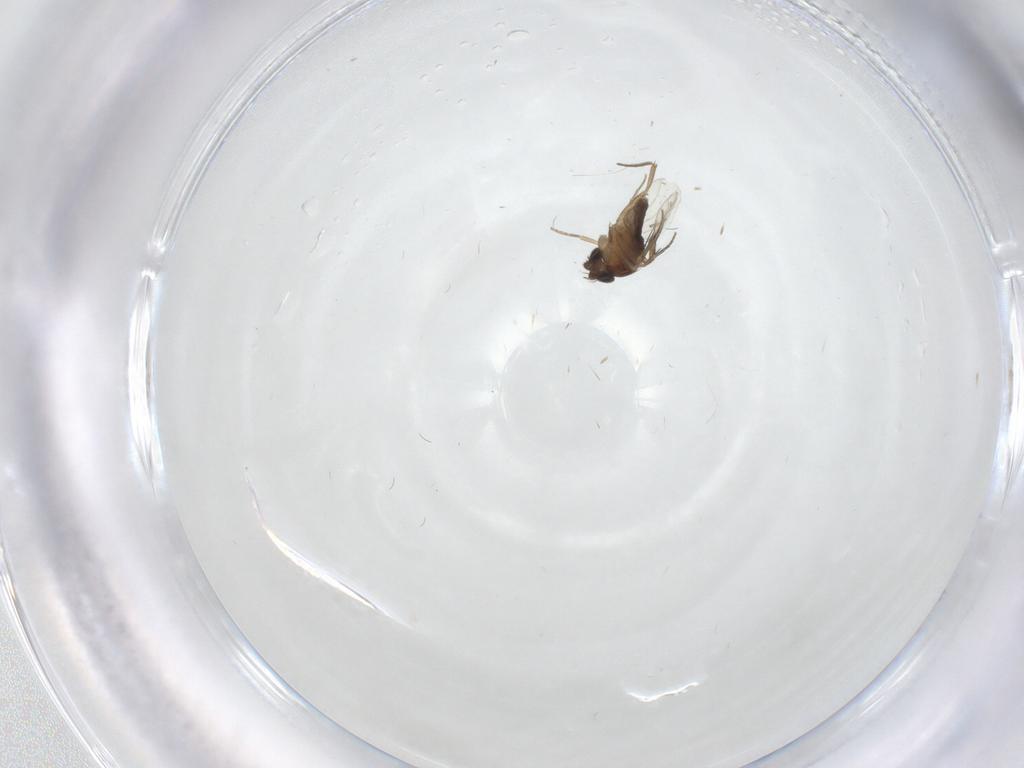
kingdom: Animalia
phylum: Arthropoda
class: Insecta
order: Diptera
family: Phoridae
